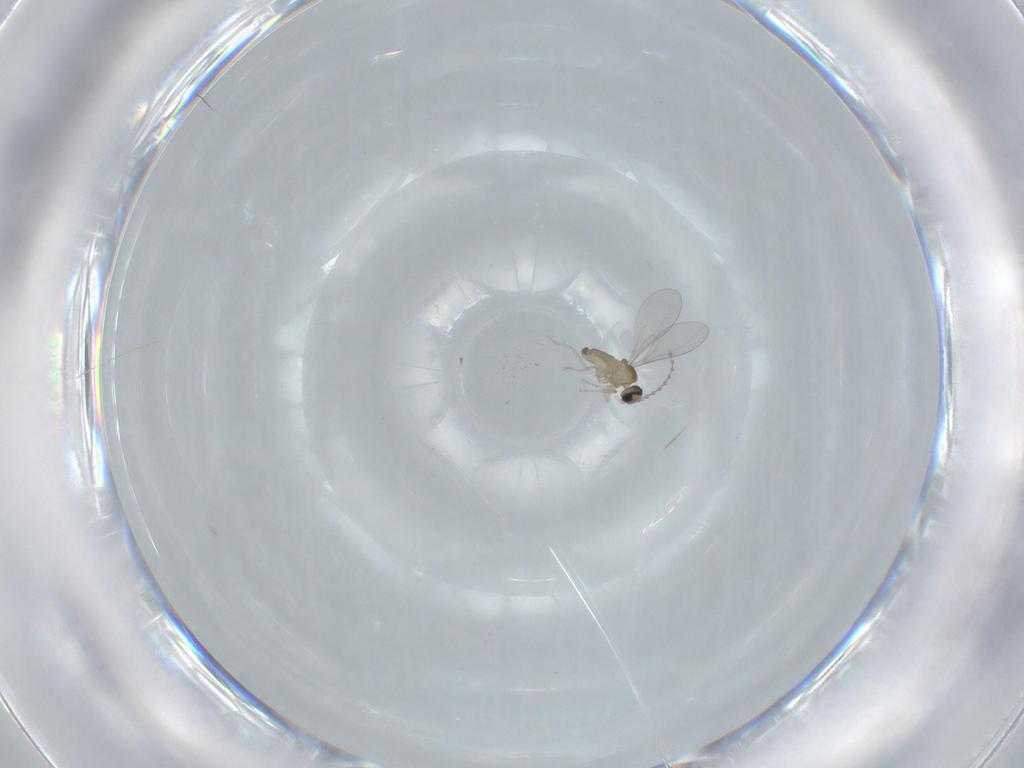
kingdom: Animalia
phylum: Arthropoda
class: Insecta
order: Diptera
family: Cecidomyiidae
